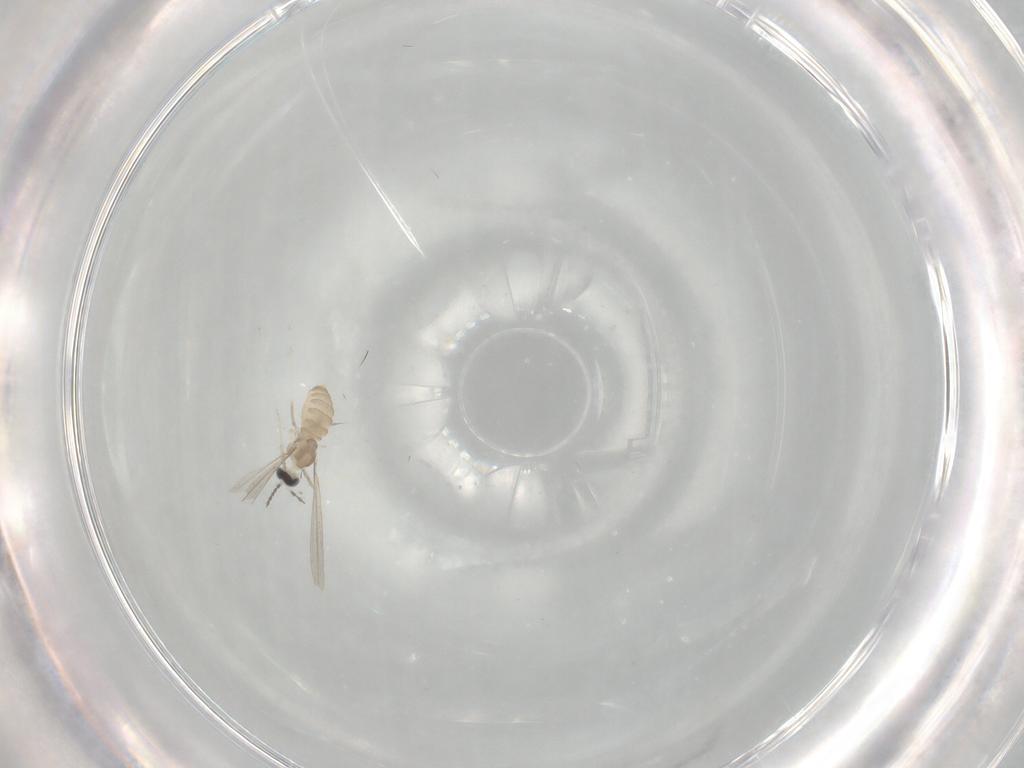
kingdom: Animalia
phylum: Arthropoda
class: Insecta
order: Diptera
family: Cecidomyiidae
